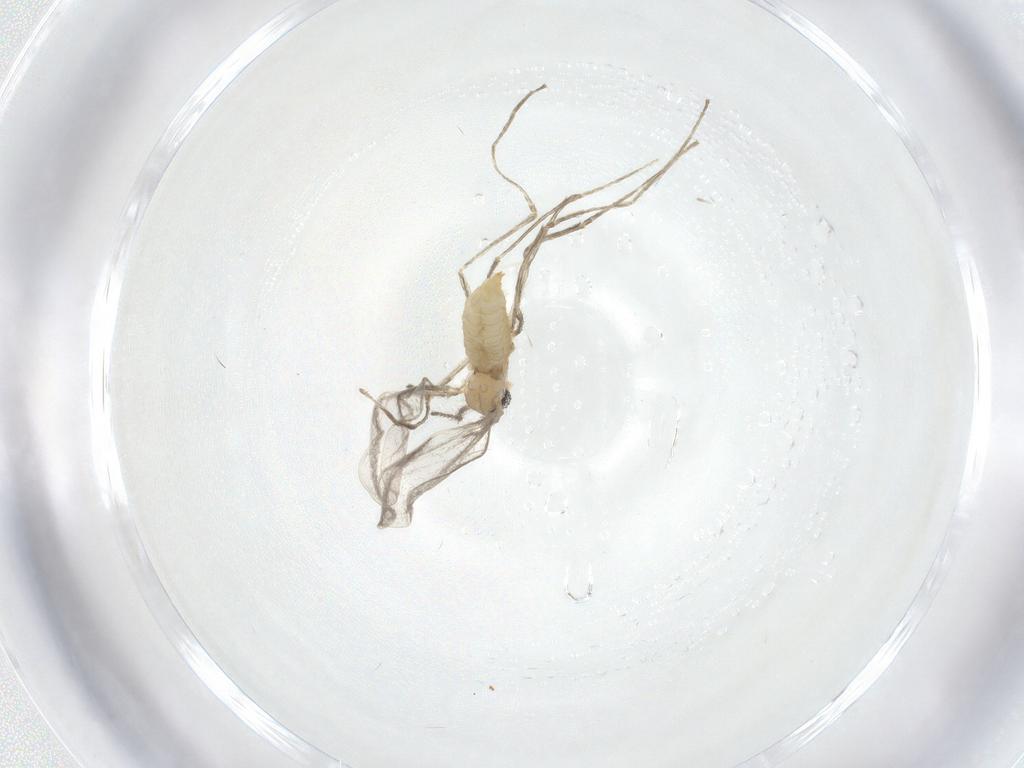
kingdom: Animalia
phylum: Arthropoda
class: Insecta
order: Diptera
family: Cecidomyiidae
